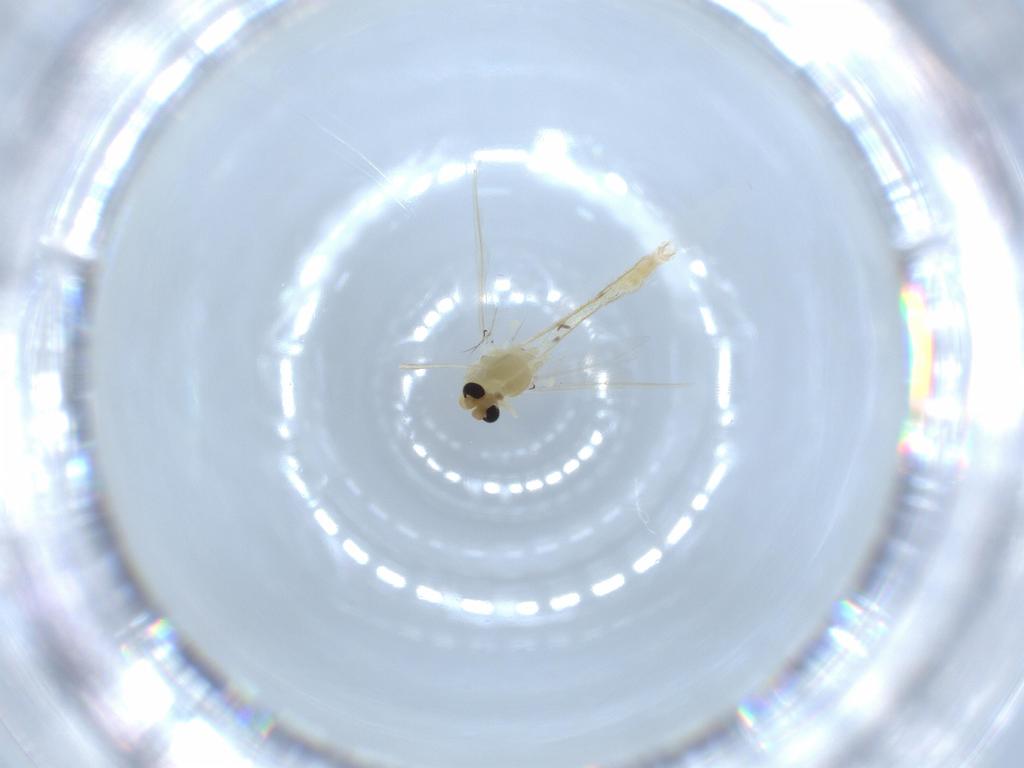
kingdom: Animalia
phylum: Arthropoda
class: Insecta
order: Diptera
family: Chironomidae
